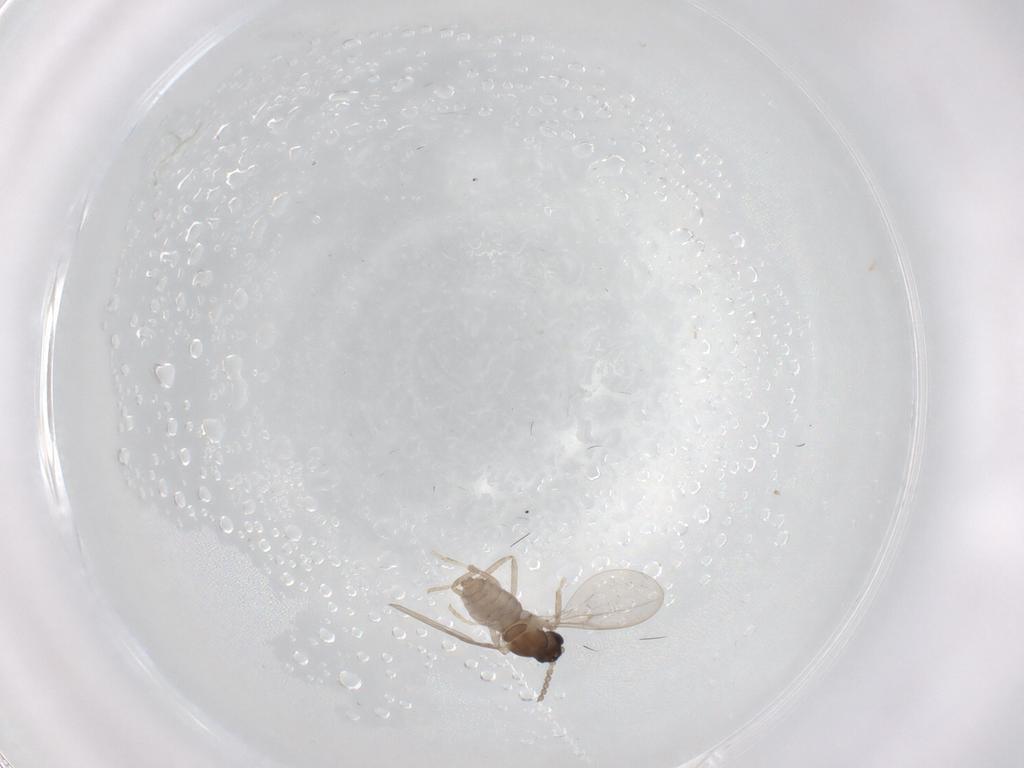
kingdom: Animalia
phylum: Arthropoda
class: Insecta
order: Diptera
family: Cecidomyiidae
